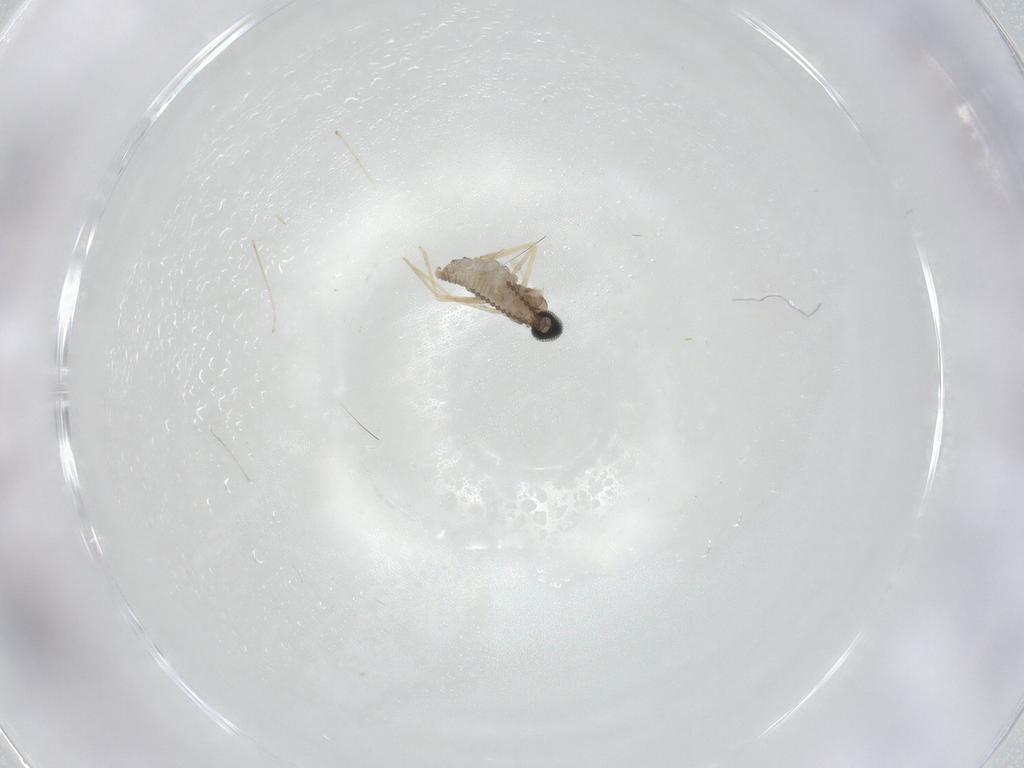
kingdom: Animalia
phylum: Arthropoda
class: Insecta
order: Diptera
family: Cecidomyiidae
